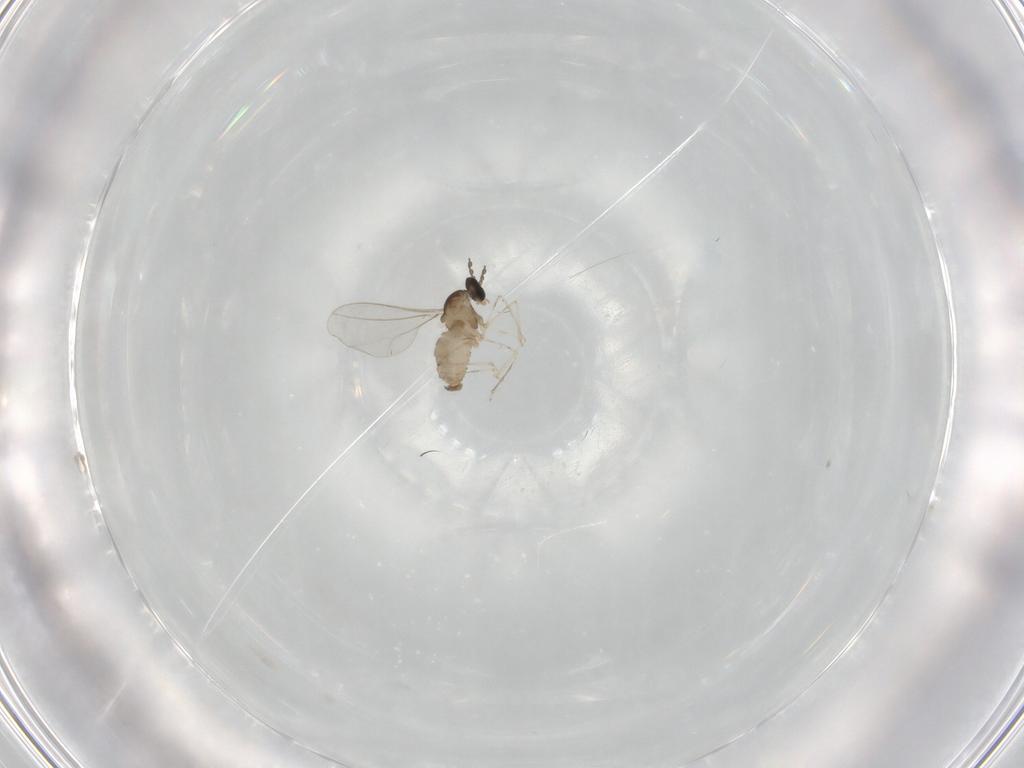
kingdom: Animalia
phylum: Arthropoda
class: Insecta
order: Diptera
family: Cecidomyiidae
